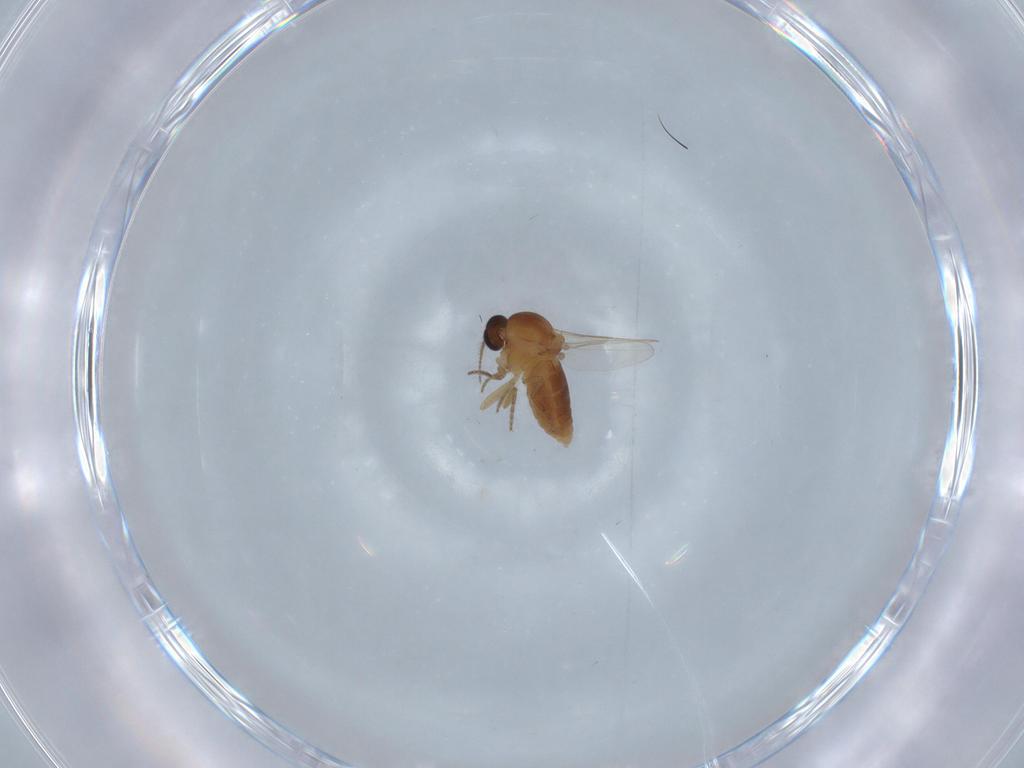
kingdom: Animalia
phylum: Arthropoda
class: Insecta
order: Diptera
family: Ceratopogonidae
